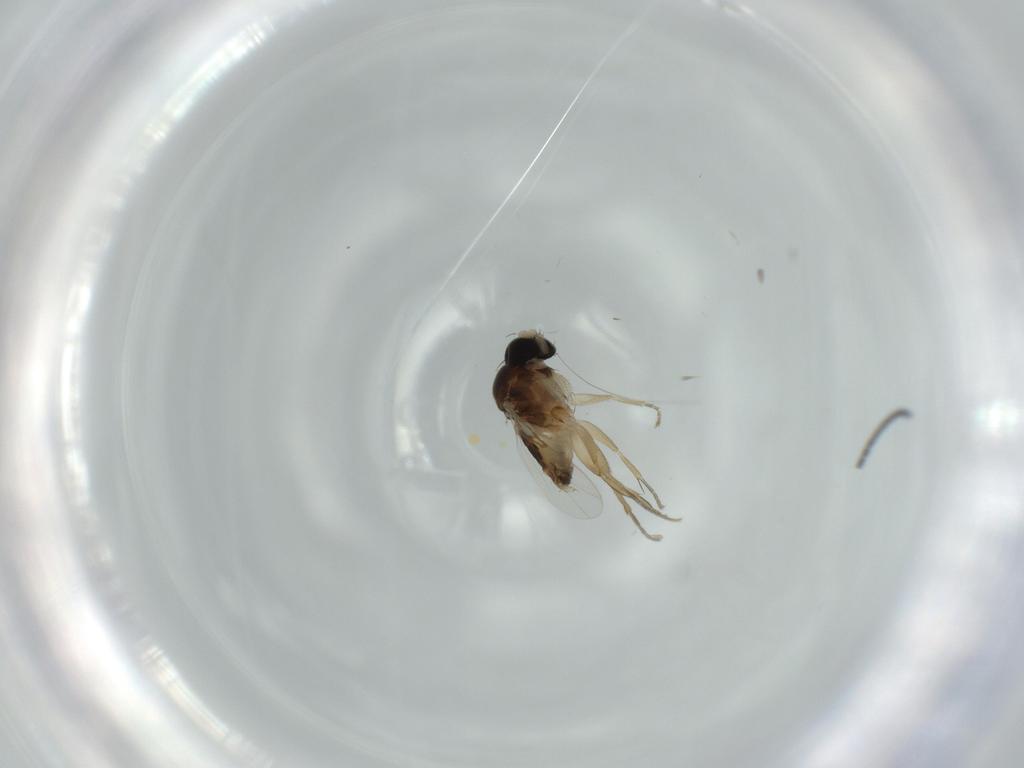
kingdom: Animalia
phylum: Arthropoda
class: Insecta
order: Diptera
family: Phoridae
